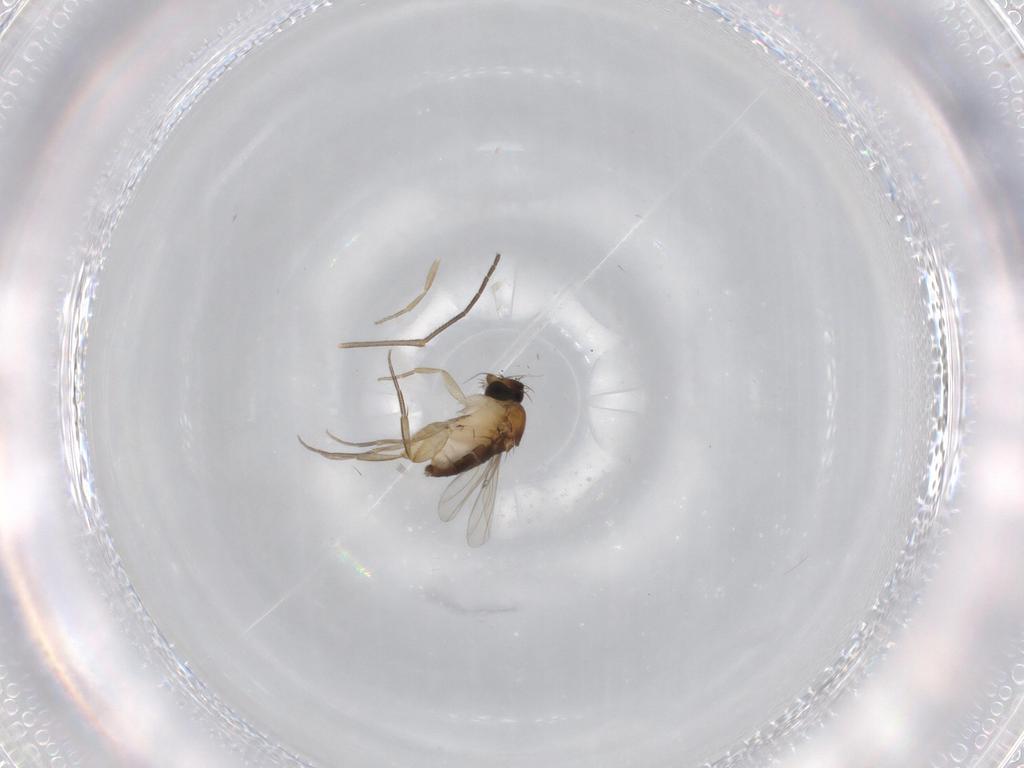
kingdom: Animalia
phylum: Arthropoda
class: Insecta
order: Diptera
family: Phoridae
